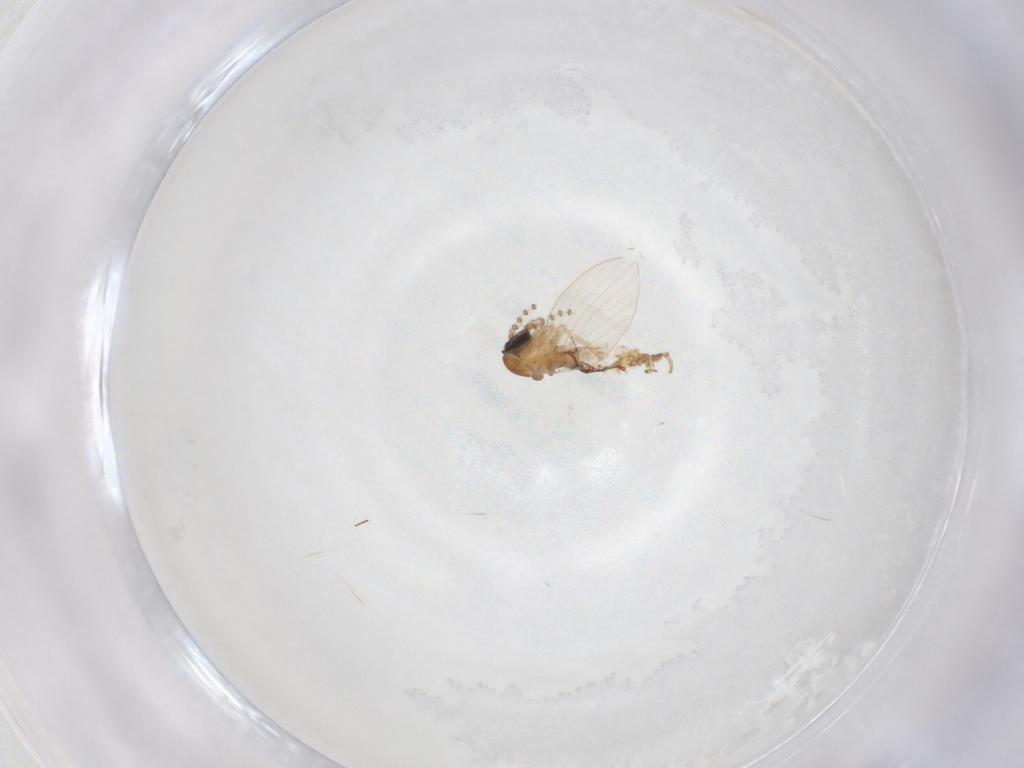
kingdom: Animalia
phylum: Arthropoda
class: Insecta
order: Diptera
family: Psychodidae
